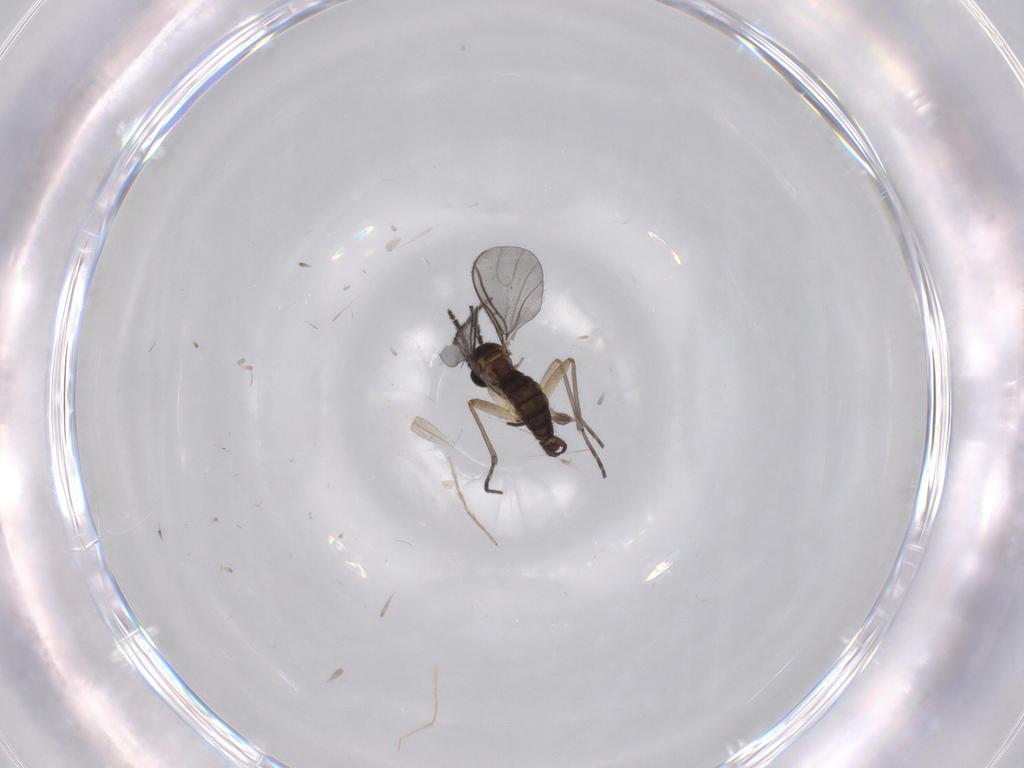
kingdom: Animalia
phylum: Arthropoda
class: Insecta
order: Diptera
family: Sciaridae
